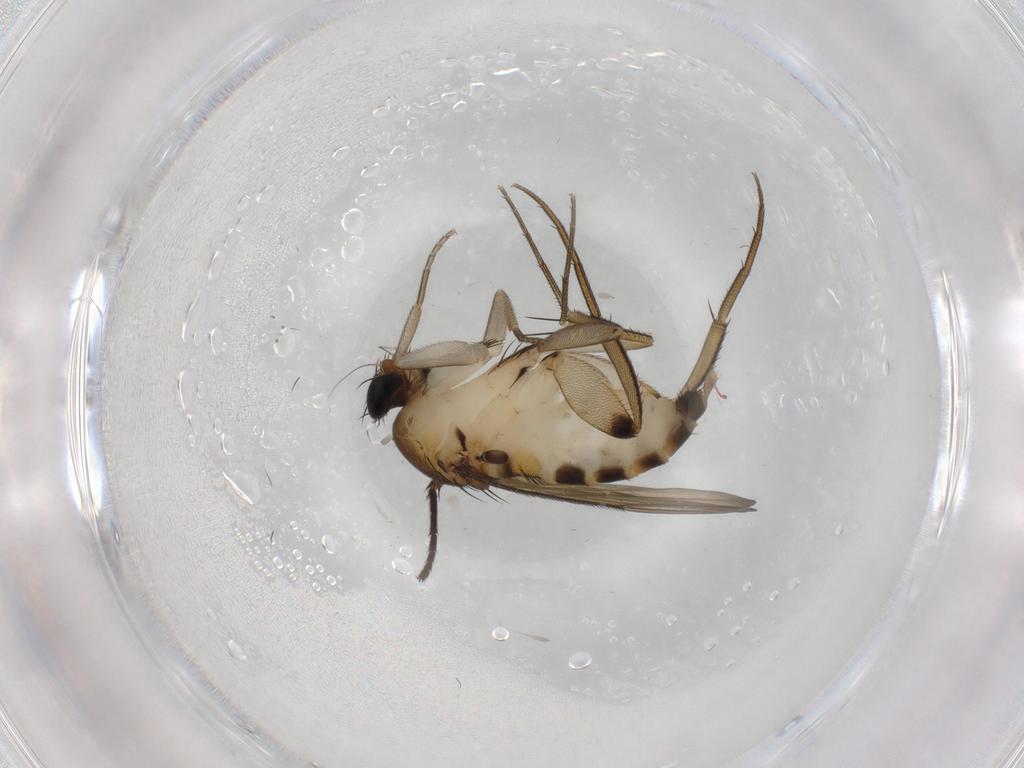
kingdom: Animalia
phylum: Arthropoda
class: Insecta
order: Diptera
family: Phoridae
